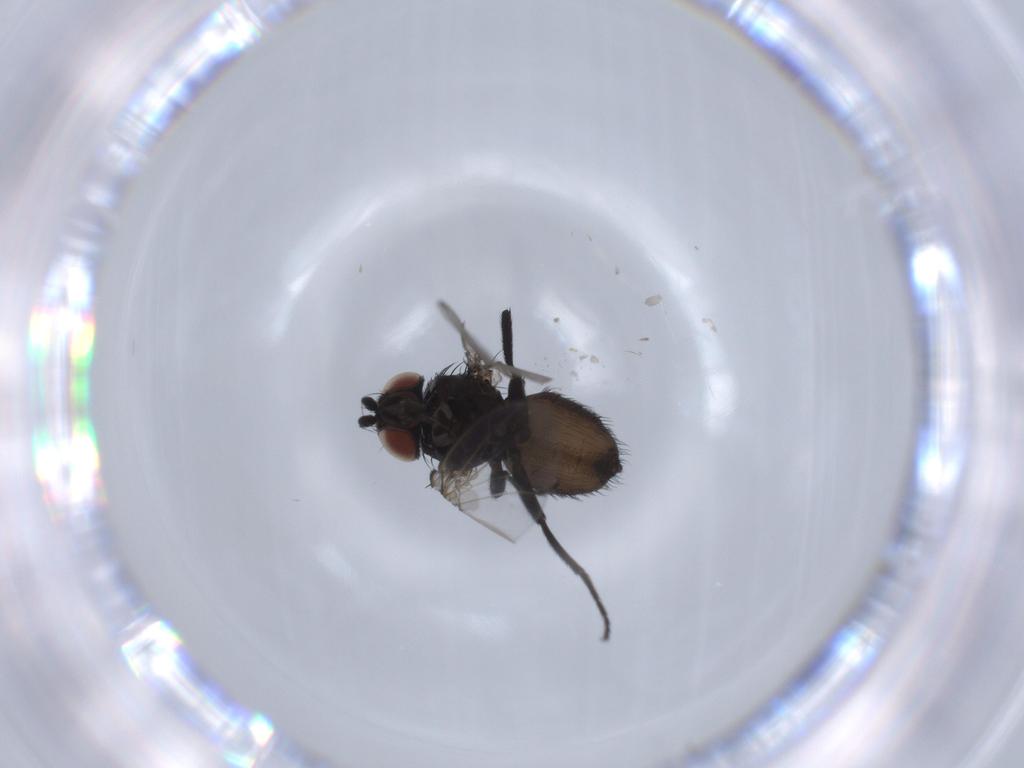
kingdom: Animalia
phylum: Arthropoda
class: Insecta
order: Diptera
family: Milichiidae
